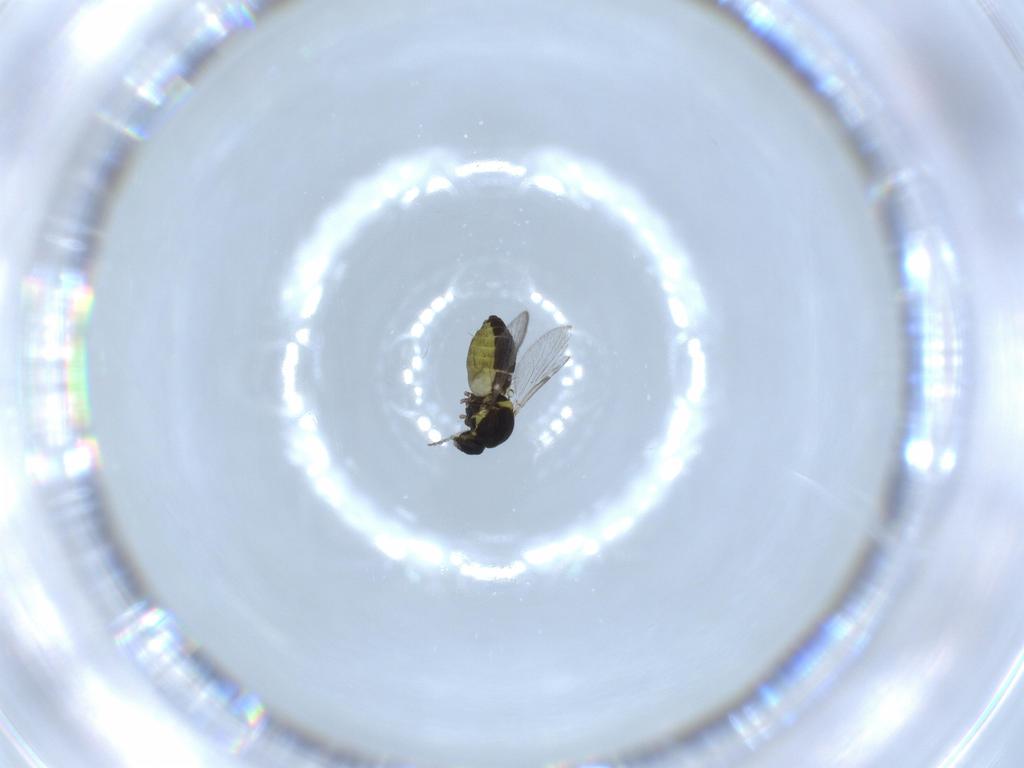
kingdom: Animalia
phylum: Arthropoda
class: Insecta
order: Diptera
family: Ceratopogonidae
